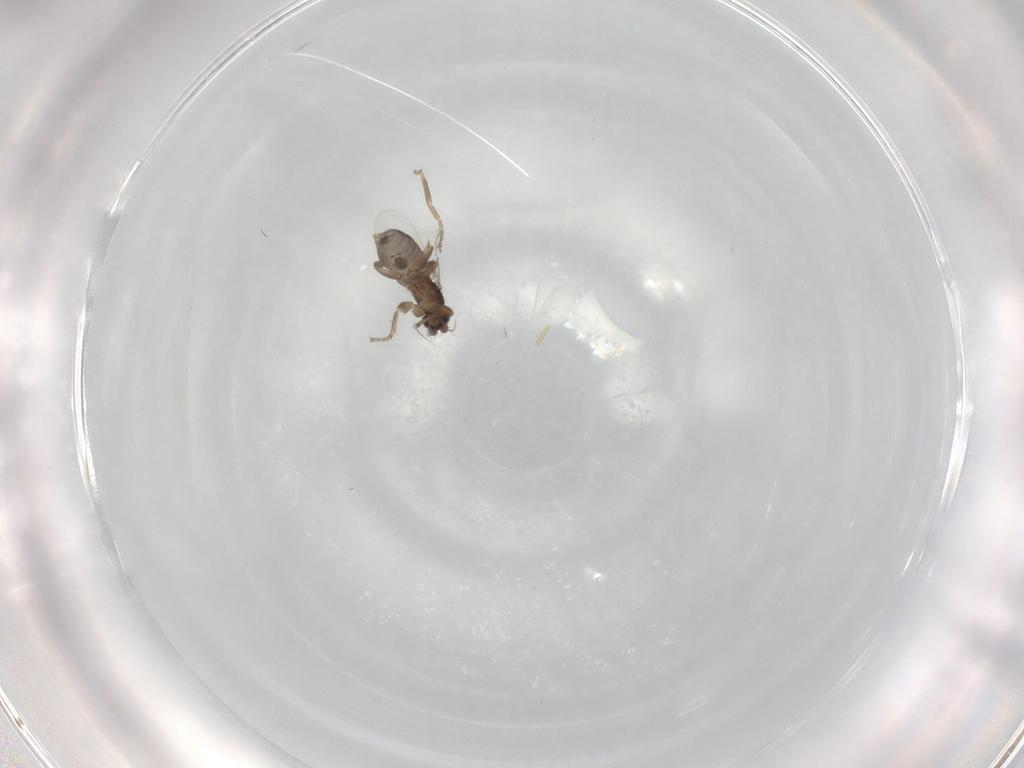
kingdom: Animalia
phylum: Arthropoda
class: Insecta
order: Diptera
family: Phoridae
